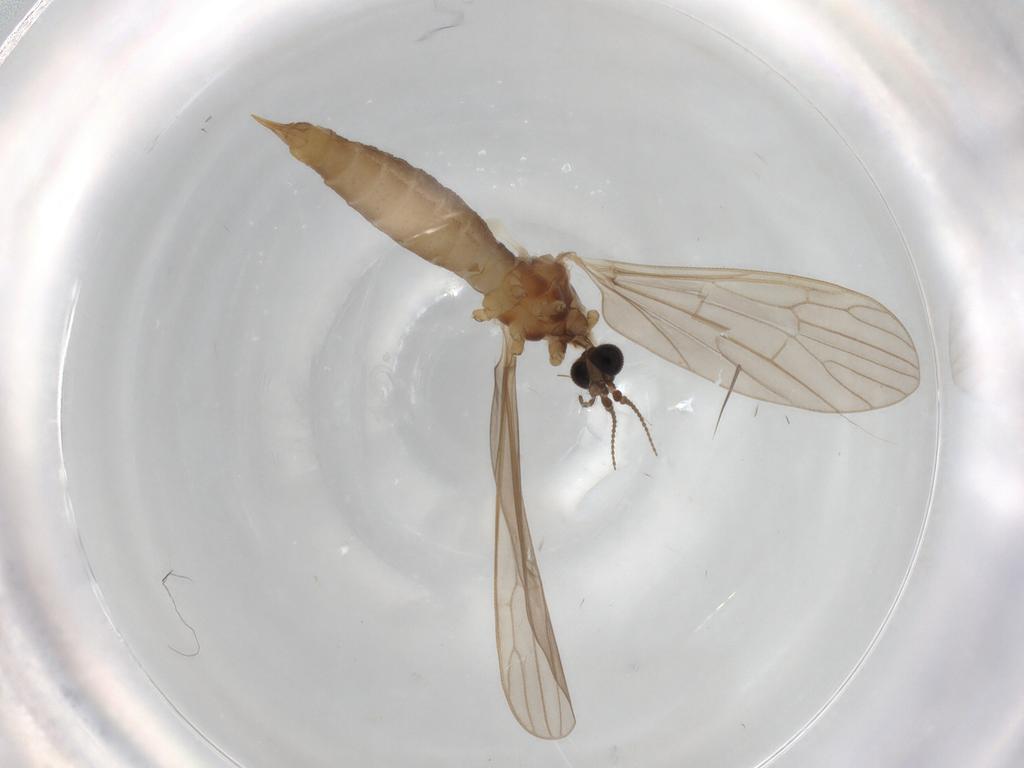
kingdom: Animalia
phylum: Arthropoda
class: Insecta
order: Diptera
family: Limoniidae
